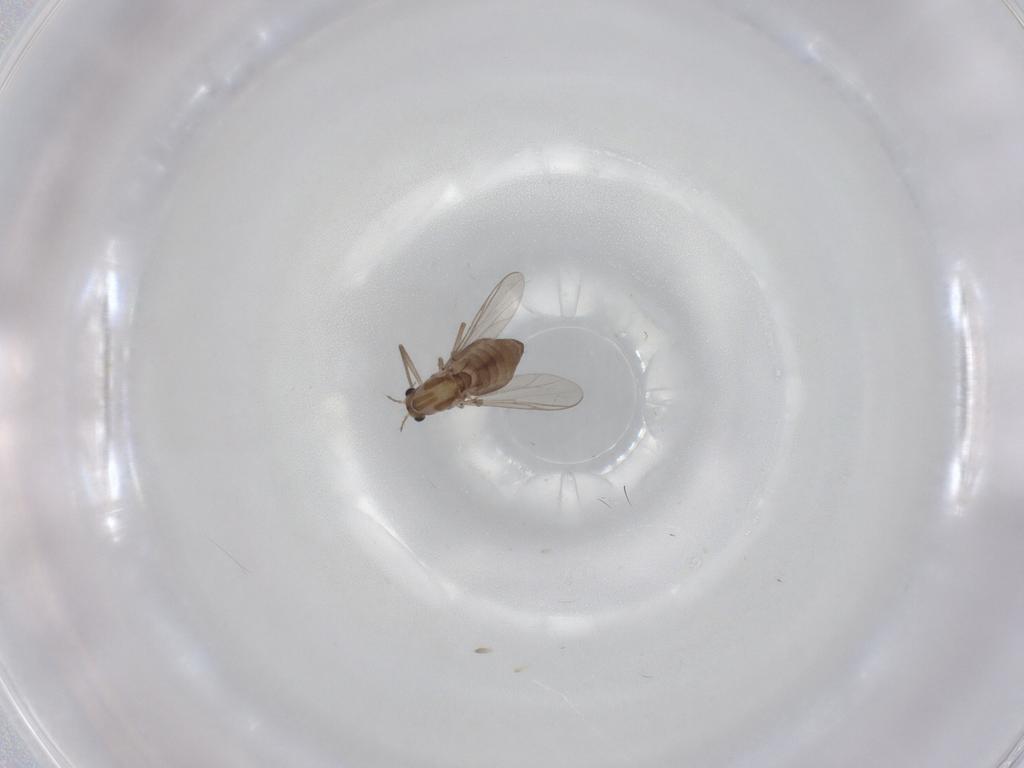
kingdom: Animalia
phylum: Arthropoda
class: Insecta
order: Diptera
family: Chironomidae
